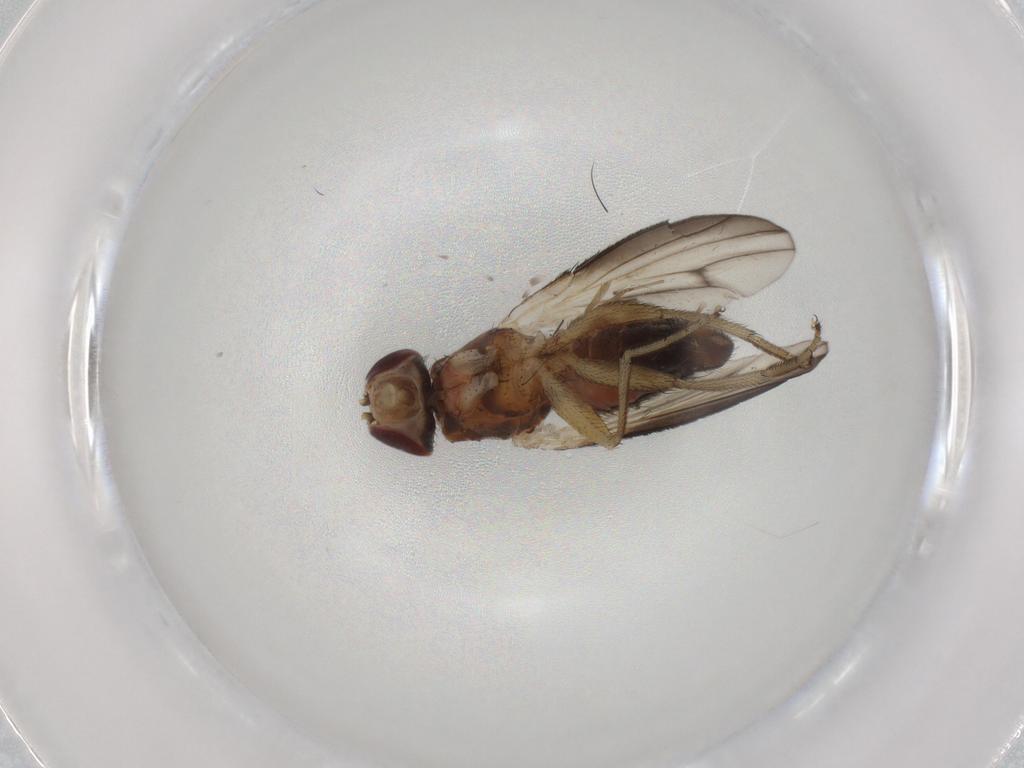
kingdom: Animalia
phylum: Arthropoda
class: Insecta
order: Diptera
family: Heleomyzidae
